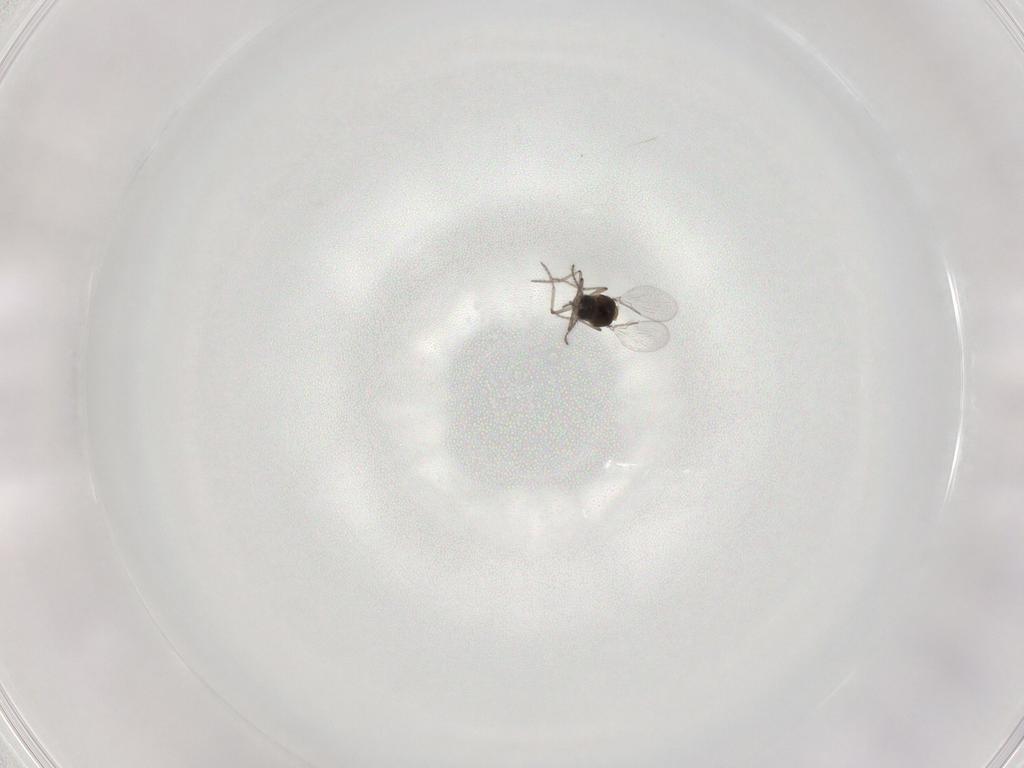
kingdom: Animalia
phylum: Arthropoda
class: Insecta
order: Diptera
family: Ceratopogonidae
